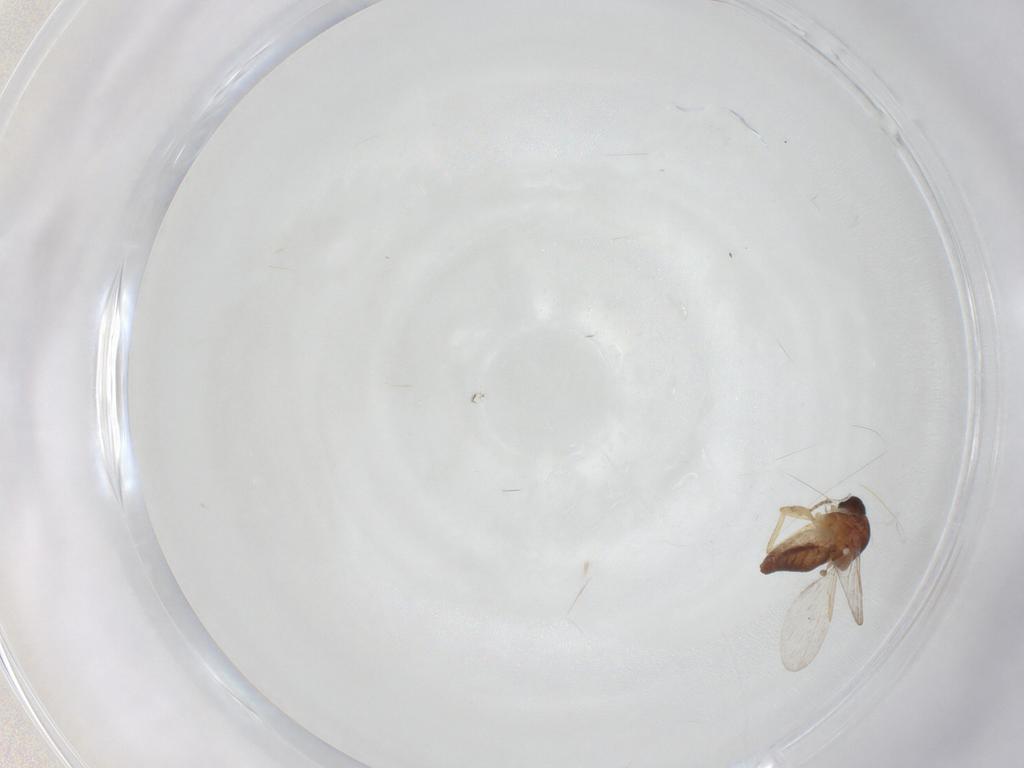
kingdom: Animalia
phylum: Arthropoda
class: Insecta
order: Diptera
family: Ceratopogonidae
